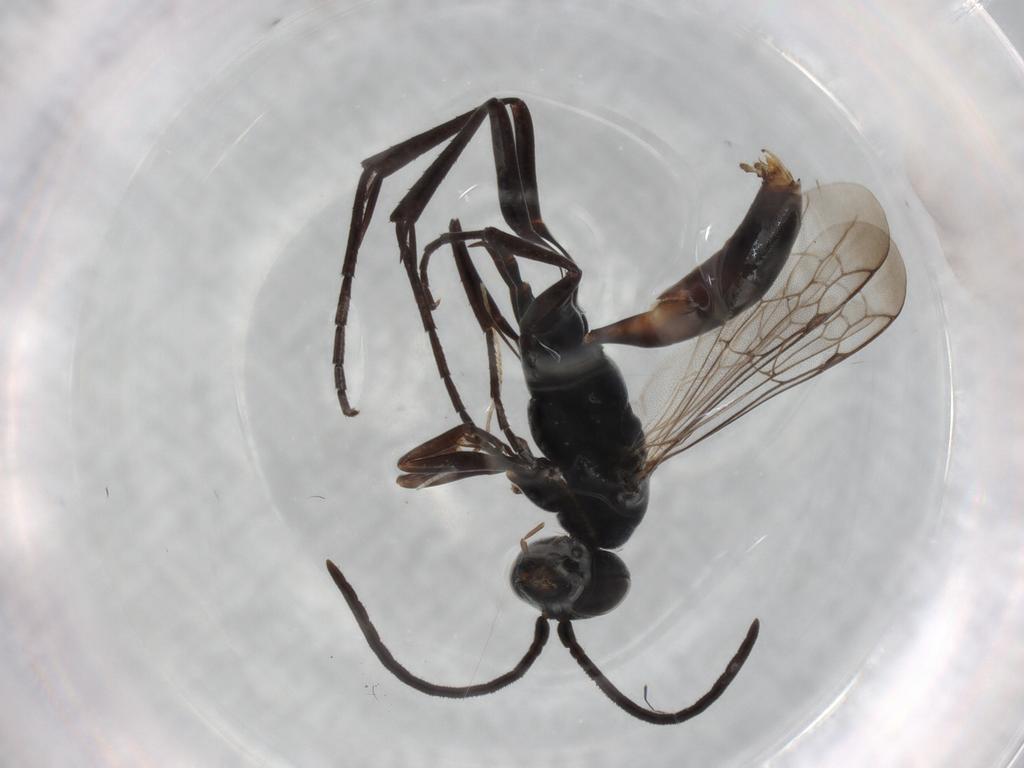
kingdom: Animalia
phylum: Arthropoda
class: Insecta
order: Hymenoptera
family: Pompilidae
